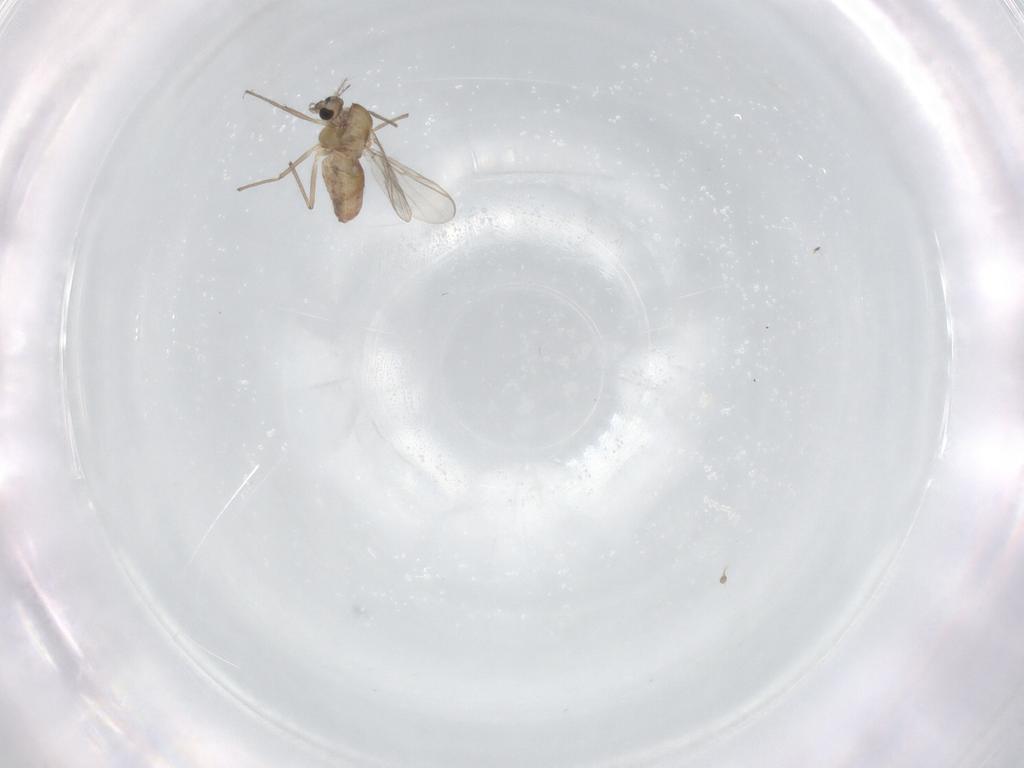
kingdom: Animalia
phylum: Arthropoda
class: Insecta
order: Diptera
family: Chironomidae
